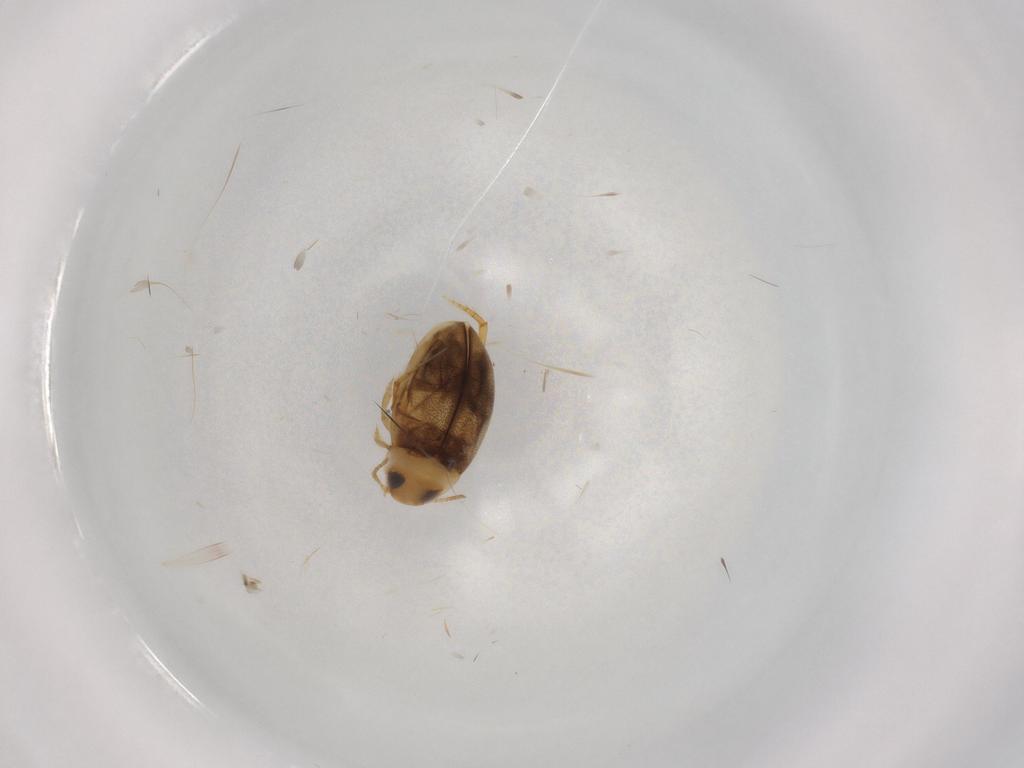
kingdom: Animalia
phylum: Arthropoda
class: Insecta
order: Coleoptera
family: Dytiscidae
